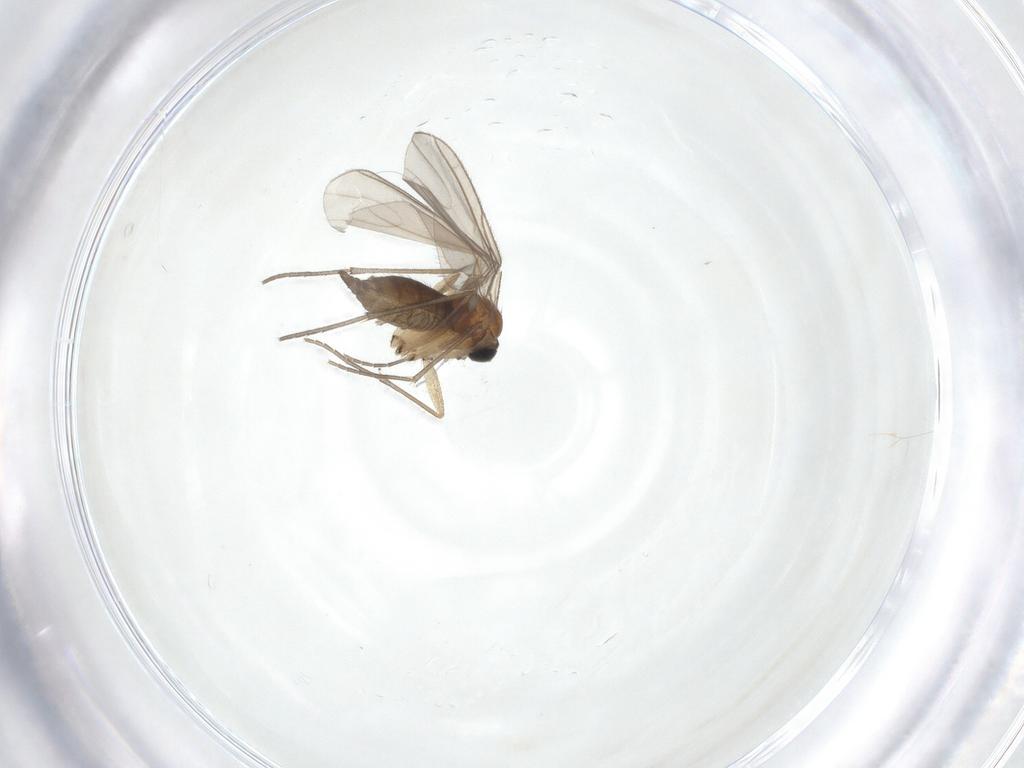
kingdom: Animalia
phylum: Arthropoda
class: Insecta
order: Diptera
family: Sciaridae
